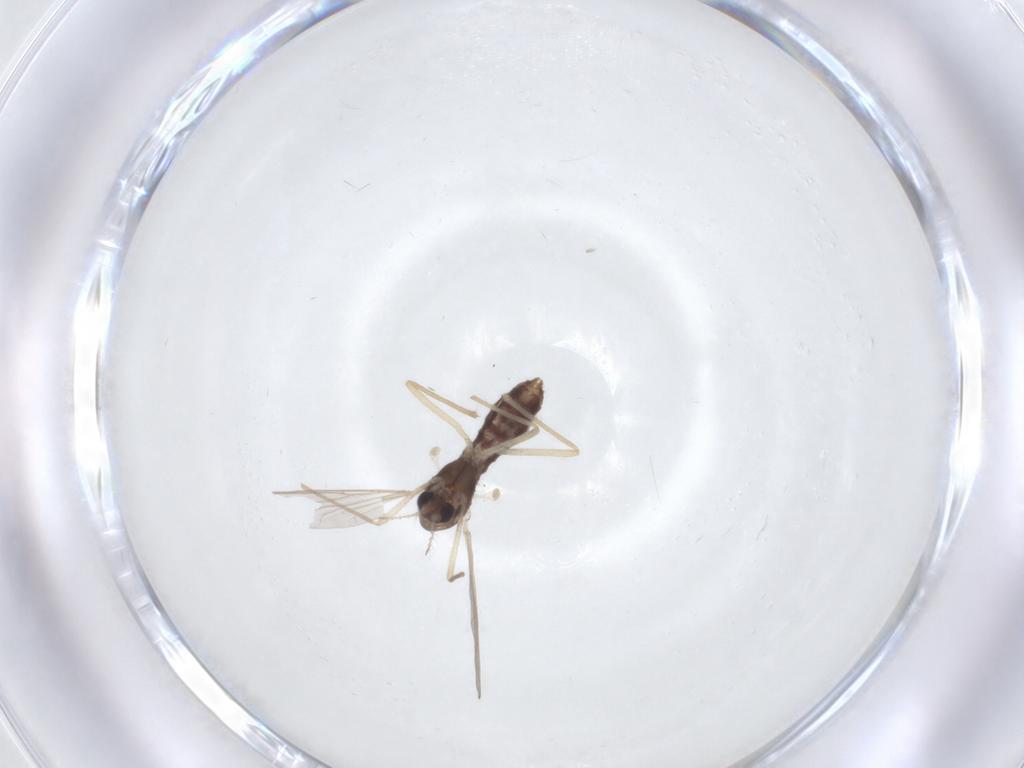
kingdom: Animalia
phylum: Arthropoda
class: Insecta
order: Diptera
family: Chironomidae
